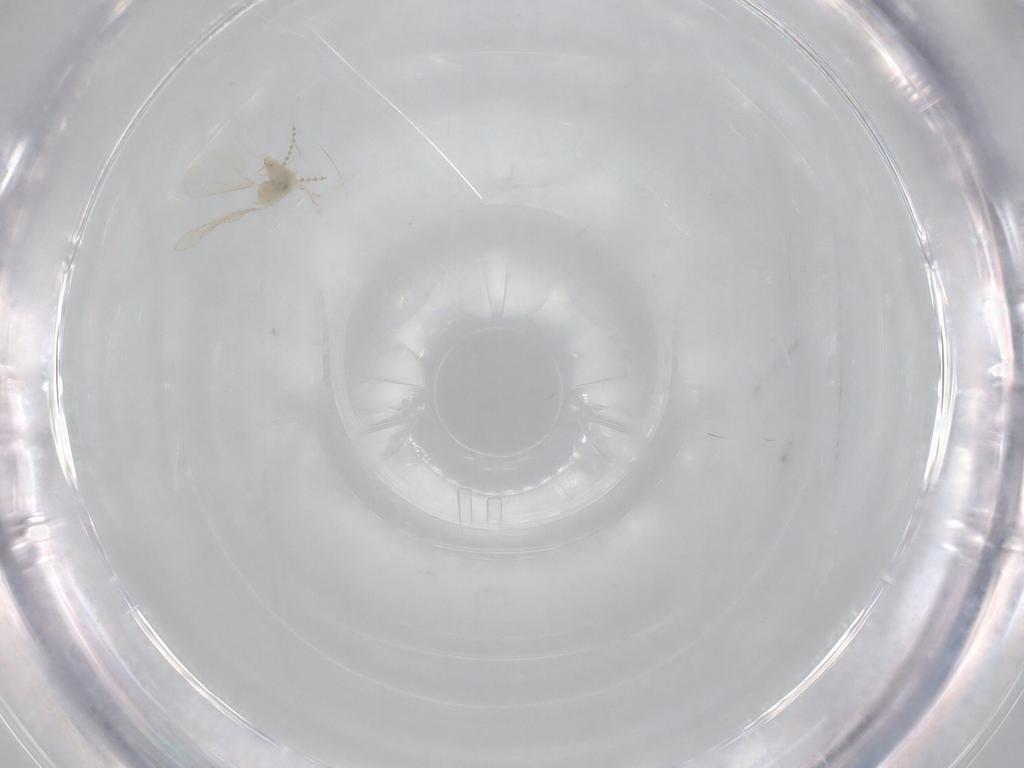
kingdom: Animalia
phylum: Arthropoda
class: Insecta
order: Diptera
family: Cecidomyiidae
